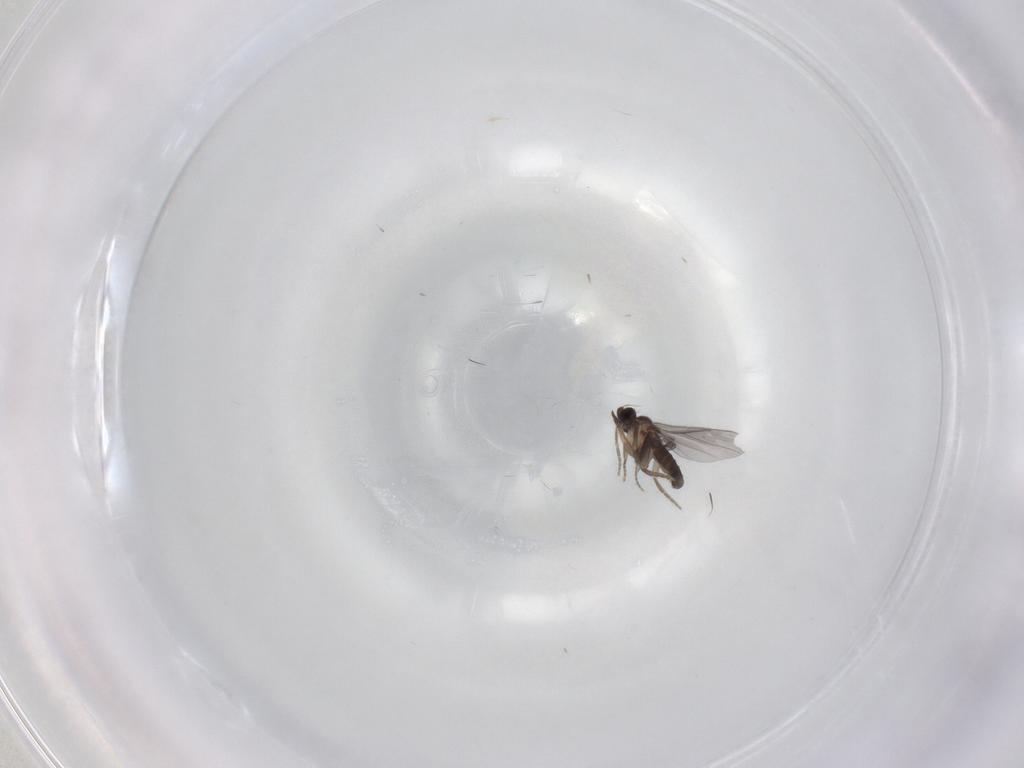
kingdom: Animalia
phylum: Arthropoda
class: Insecta
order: Diptera
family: Phoridae
